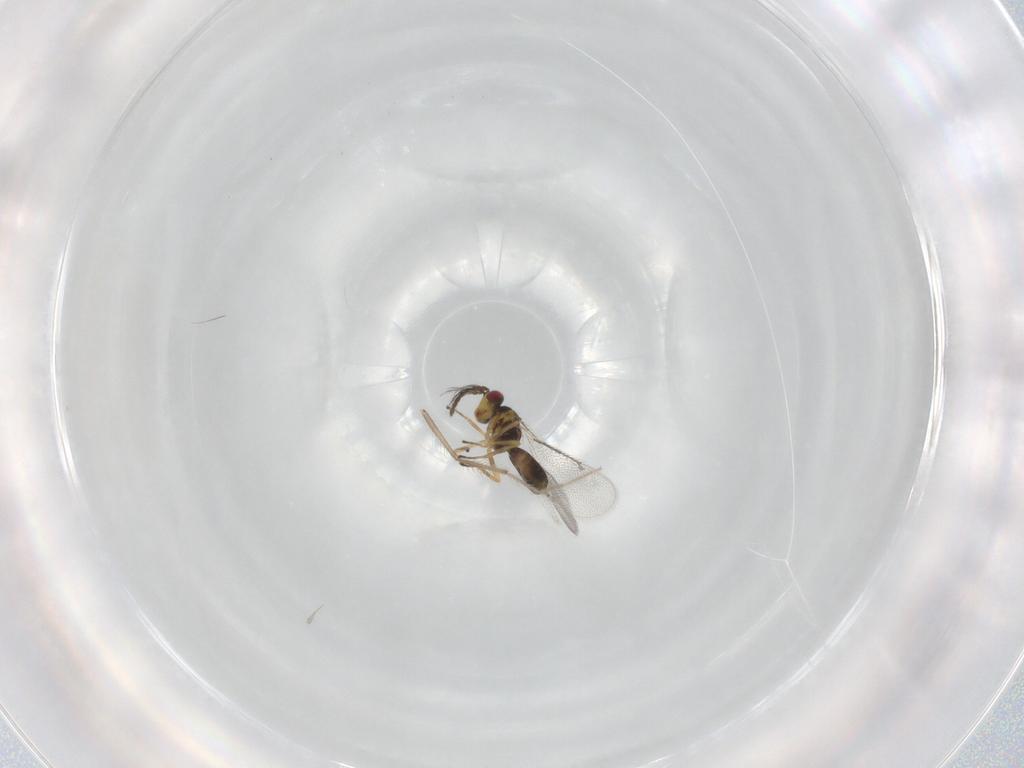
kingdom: Animalia
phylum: Arthropoda
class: Insecta
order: Hymenoptera
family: Eulophidae
